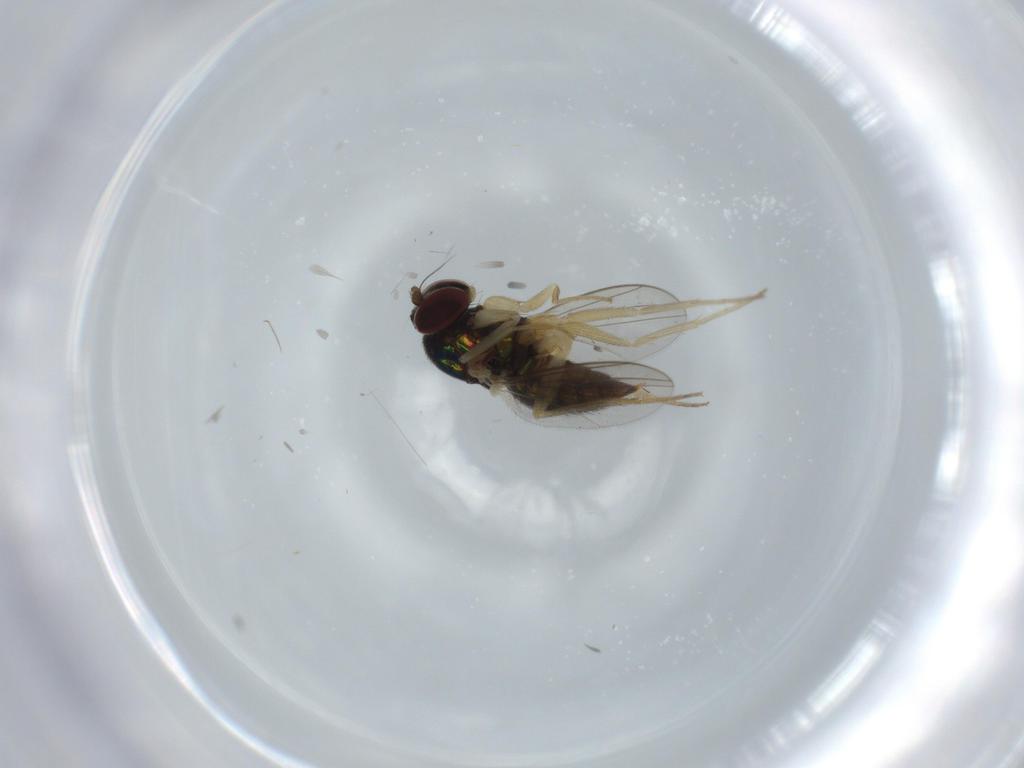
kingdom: Animalia
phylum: Arthropoda
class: Insecta
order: Diptera
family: Dolichopodidae
